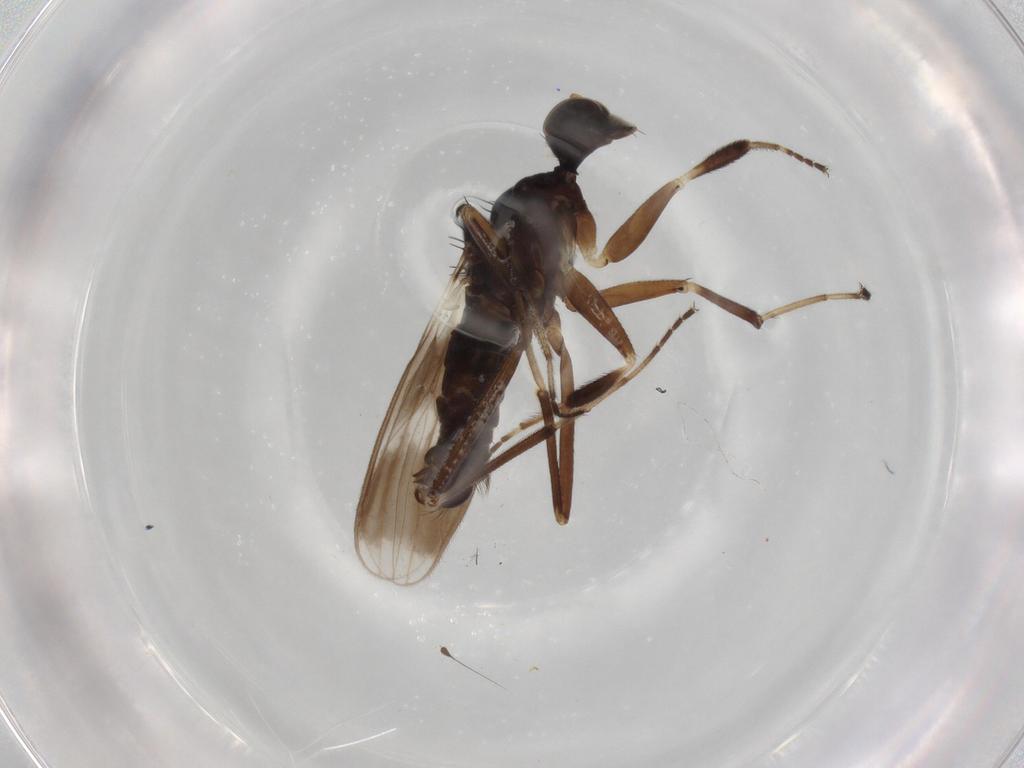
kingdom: Animalia
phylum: Arthropoda
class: Insecta
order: Diptera
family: Hybotidae
